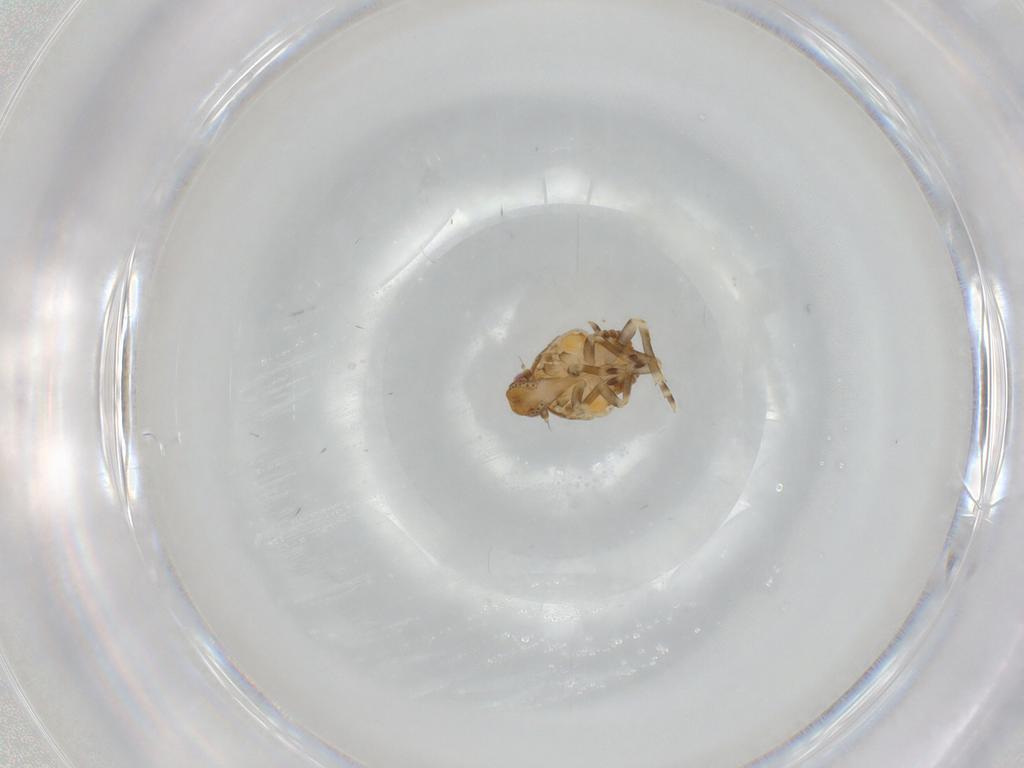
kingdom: Animalia
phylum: Arthropoda
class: Insecta
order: Hemiptera
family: Flatidae
